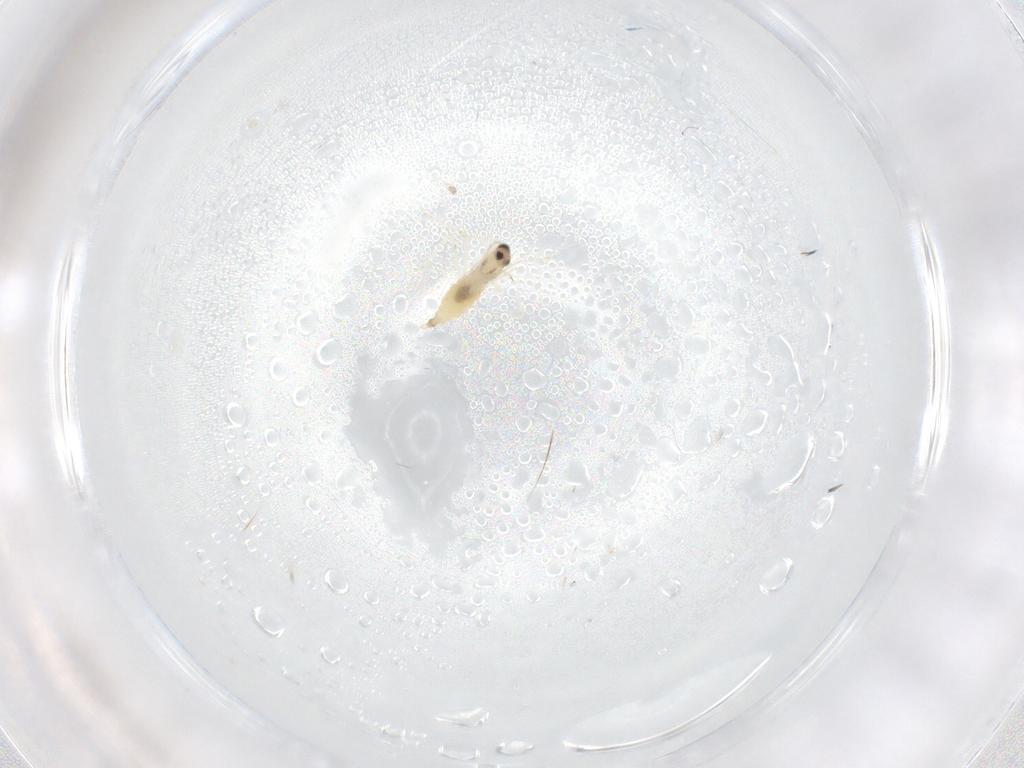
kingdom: Animalia
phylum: Arthropoda
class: Insecta
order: Diptera
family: Cecidomyiidae
